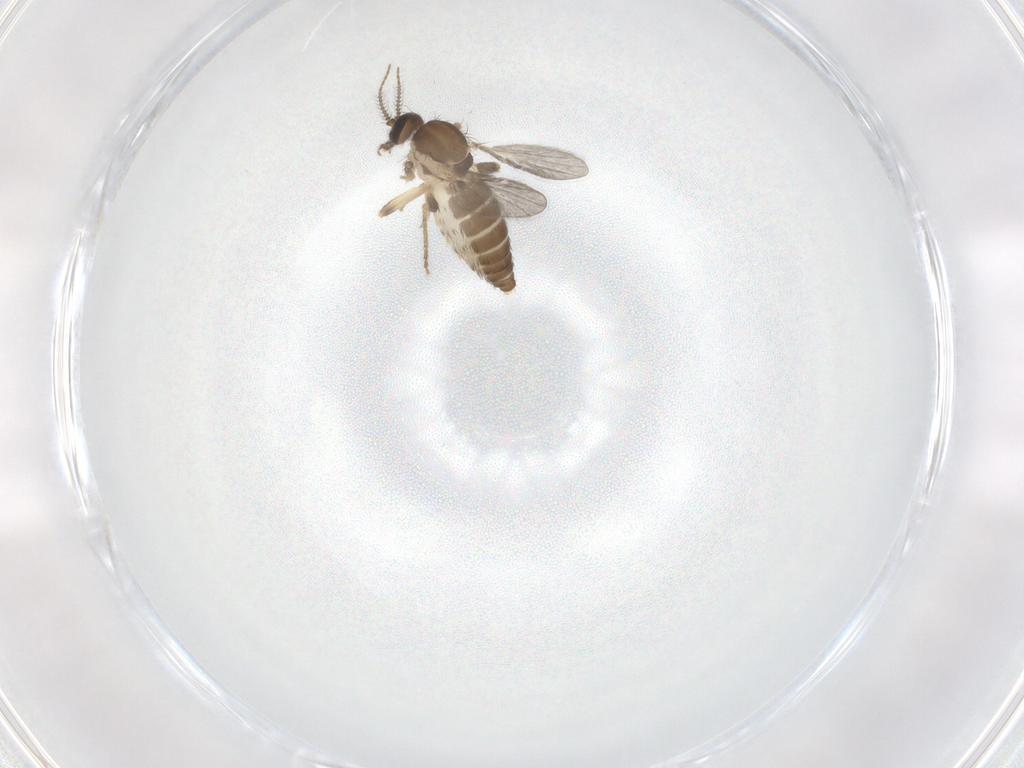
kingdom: Animalia
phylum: Arthropoda
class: Insecta
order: Diptera
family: Ceratopogonidae
